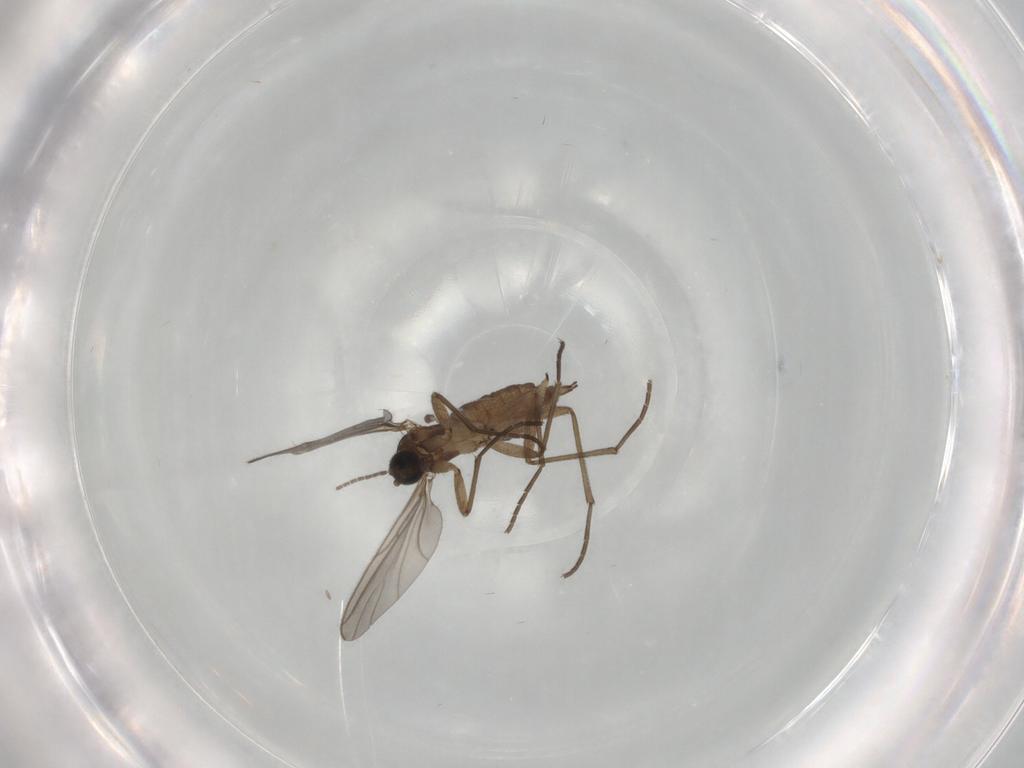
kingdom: Animalia
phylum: Arthropoda
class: Insecta
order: Diptera
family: Sciaridae
